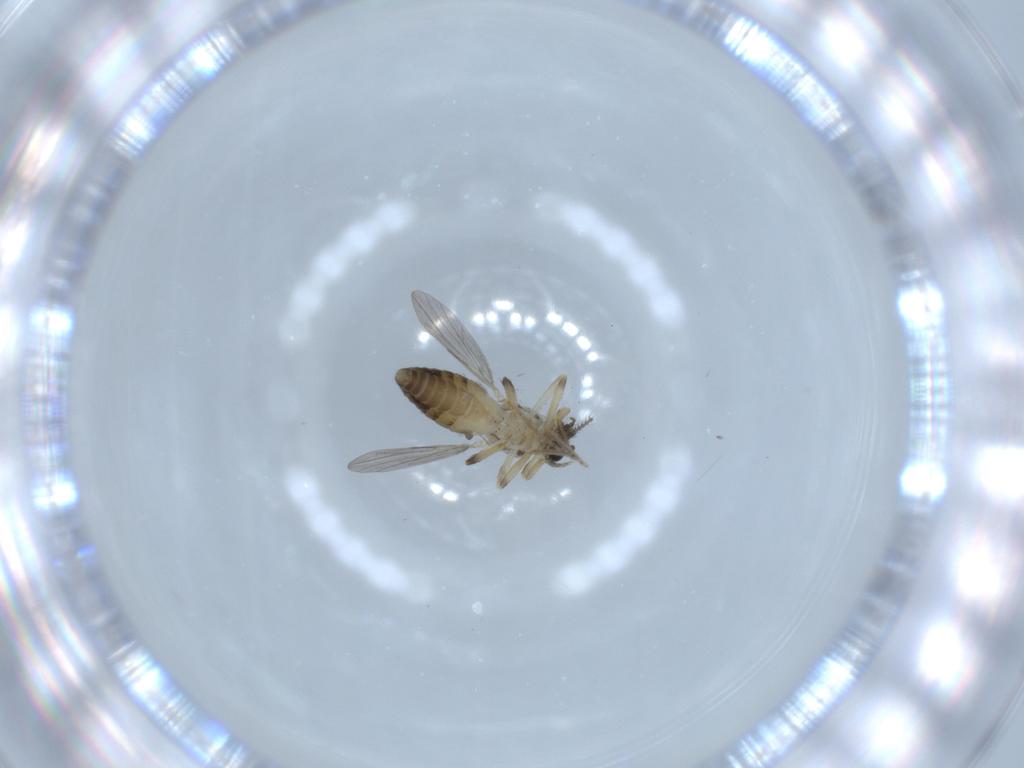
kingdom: Animalia
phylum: Arthropoda
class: Insecta
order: Diptera
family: Ceratopogonidae
